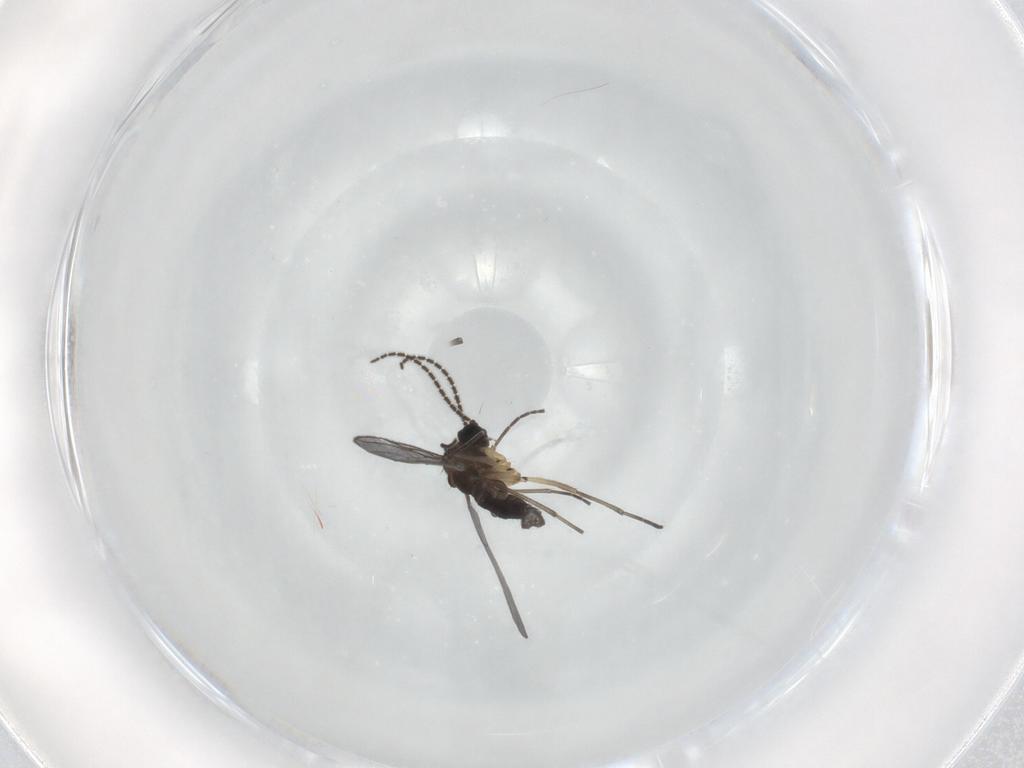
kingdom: Animalia
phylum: Arthropoda
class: Insecta
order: Diptera
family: Sciaridae
